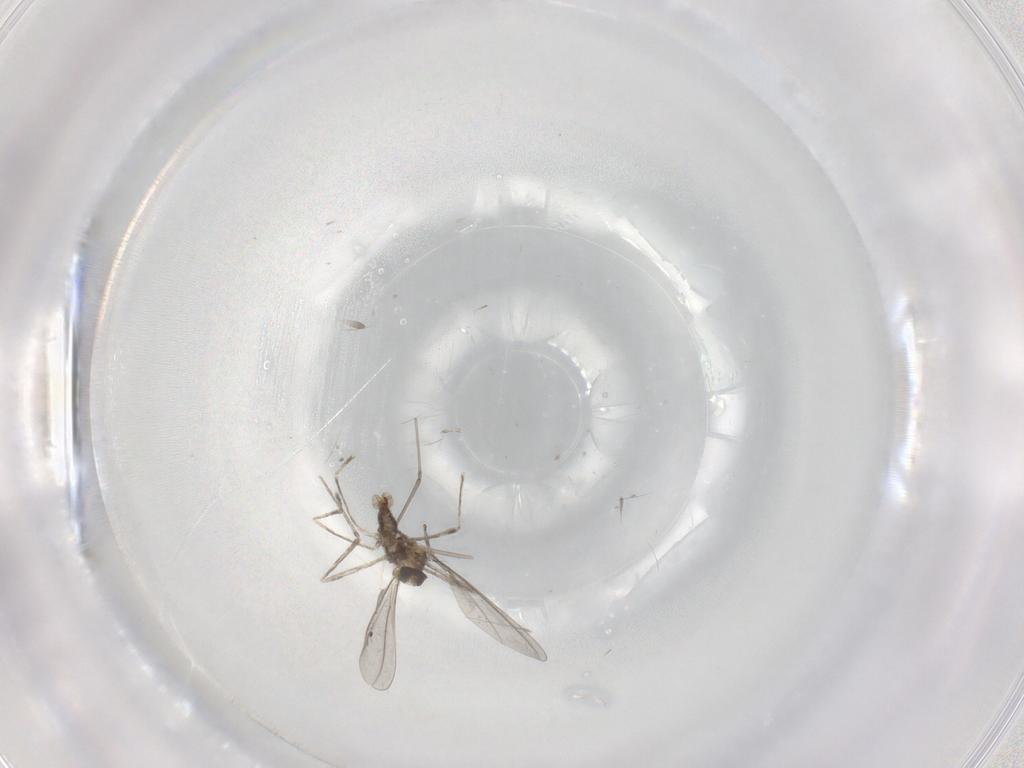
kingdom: Animalia
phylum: Arthropoda
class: Insecta
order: Diptera
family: Cecidomyiidae
